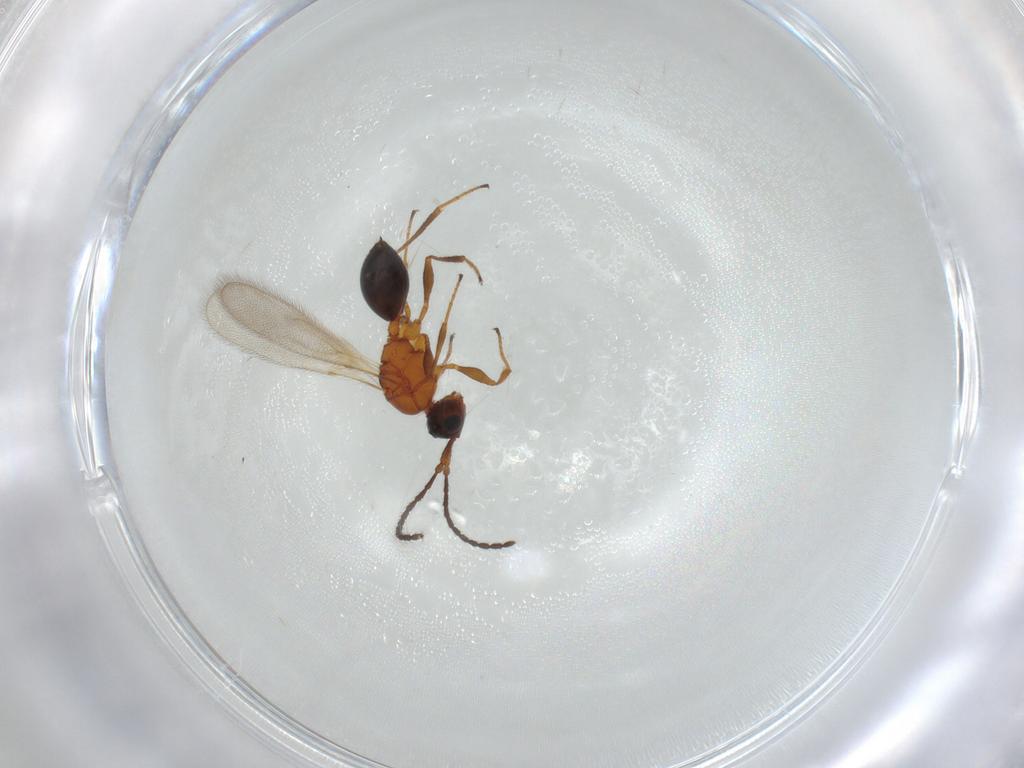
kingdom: Animalia
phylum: Arthropoda
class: Insecta
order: Hymenoptera
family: Diapriidae
